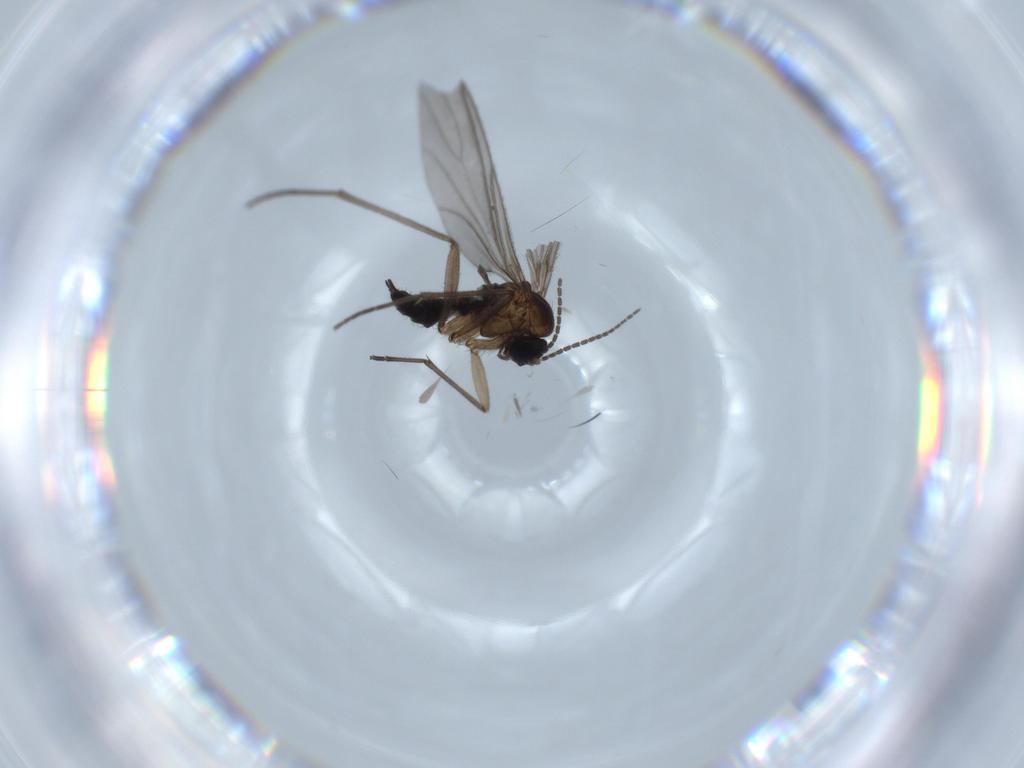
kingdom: Animalia
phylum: Arthropoda
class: Insecta
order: Diptera
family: Sciaridae
